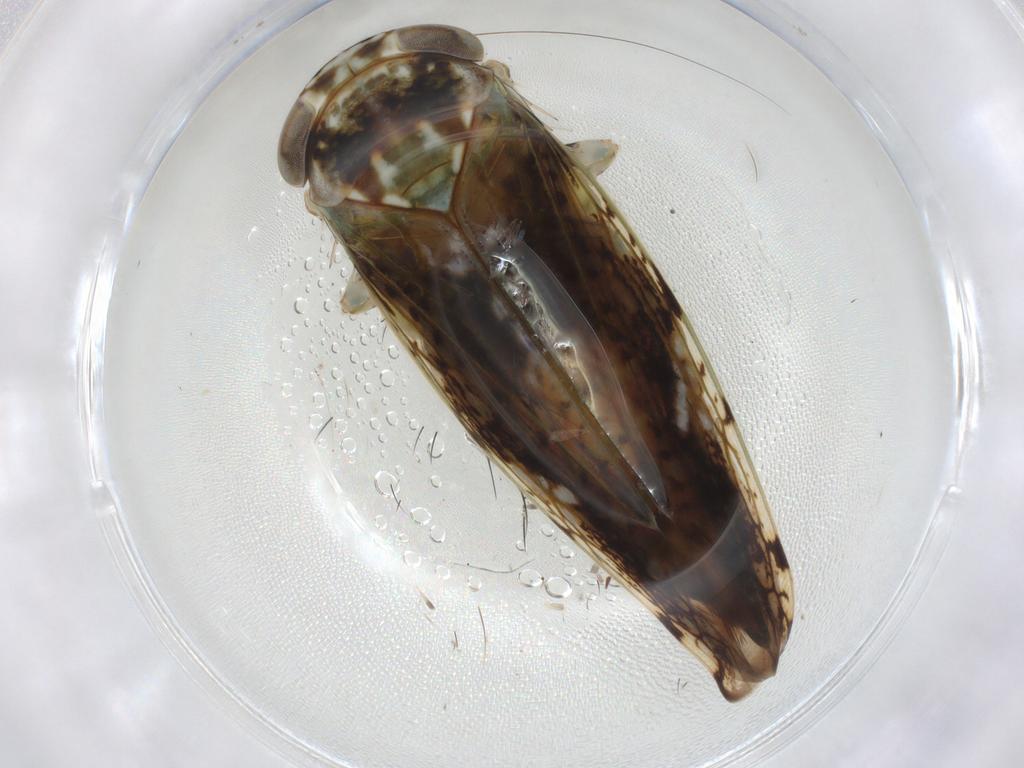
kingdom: Animalia
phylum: Arthropoda
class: Insecta
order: Hemiptera
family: Cicadellidae
